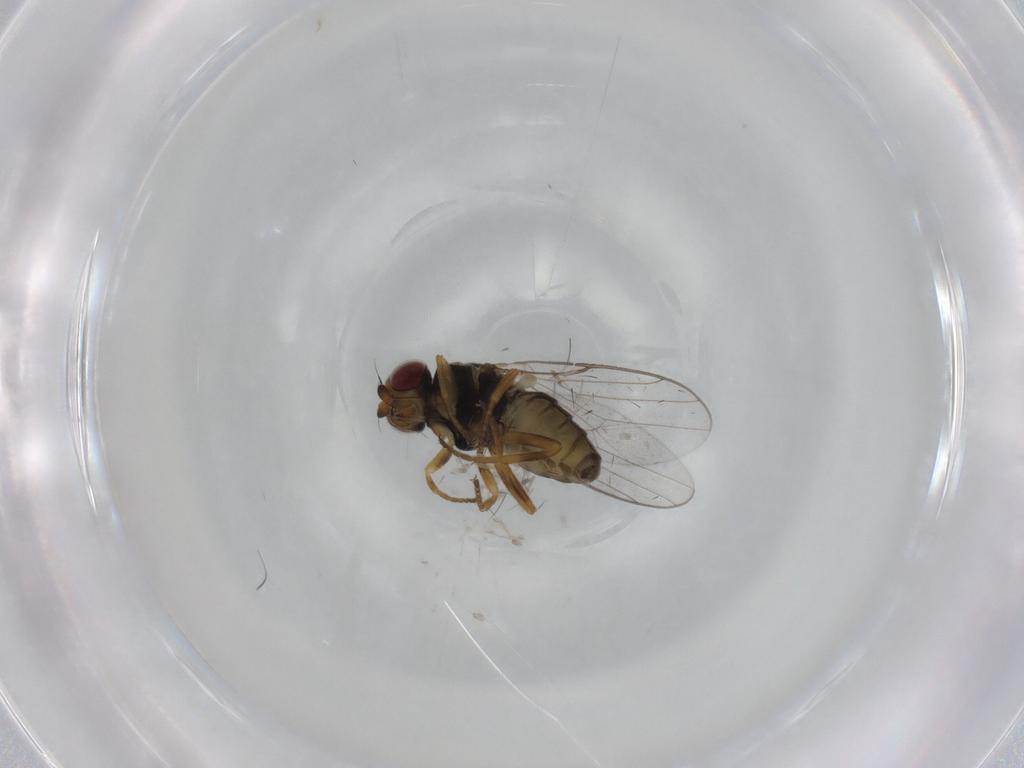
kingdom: Animalia
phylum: Arthropoda
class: Insecta
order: Diptera
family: Chloropidae
